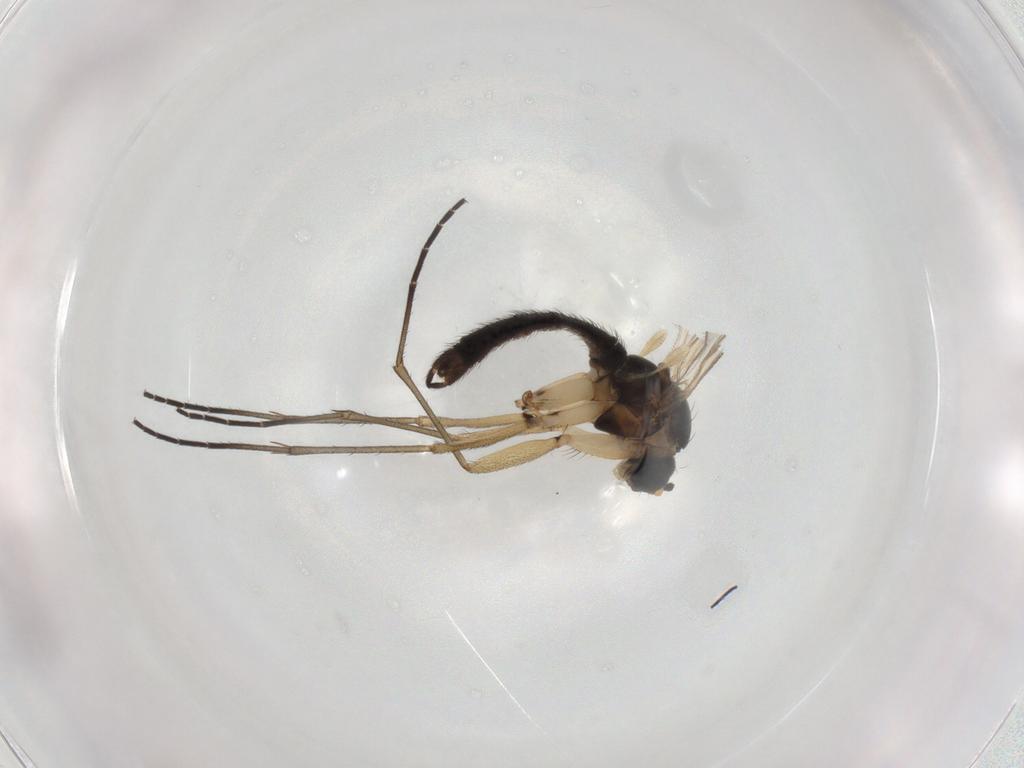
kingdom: Animalia
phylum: Arthropoda
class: Insecta
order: Diptera
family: Sciaridae
